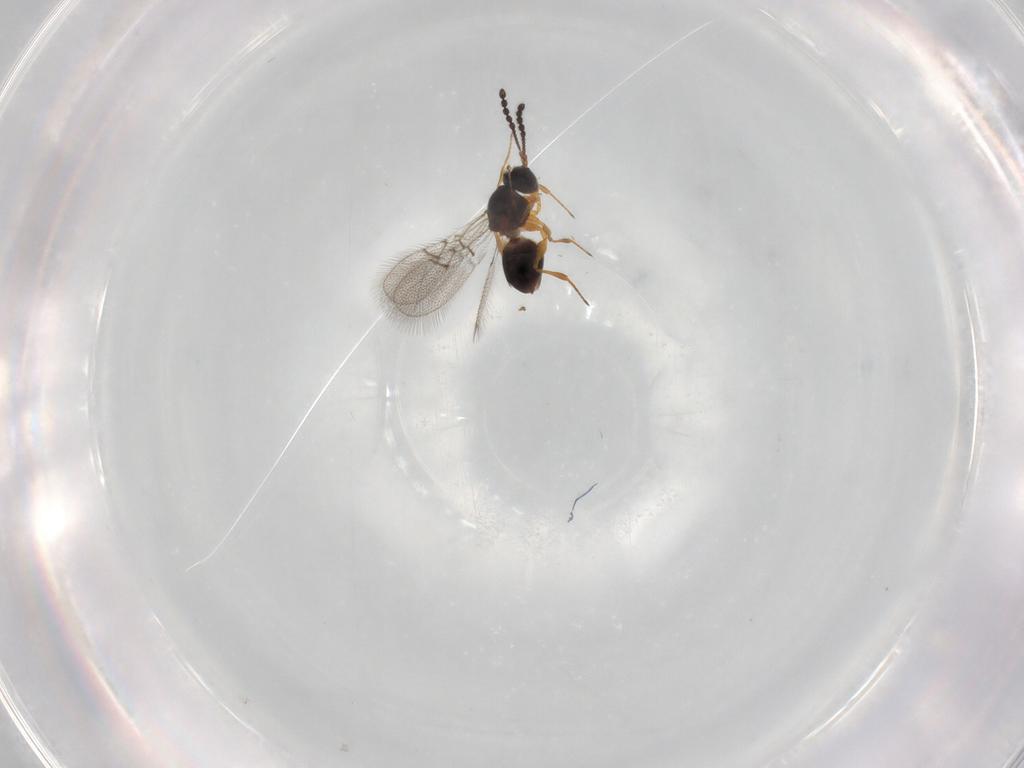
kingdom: Animalia
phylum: Arthropoda
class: Insecta
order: Hymenoptera
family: Figitidae
